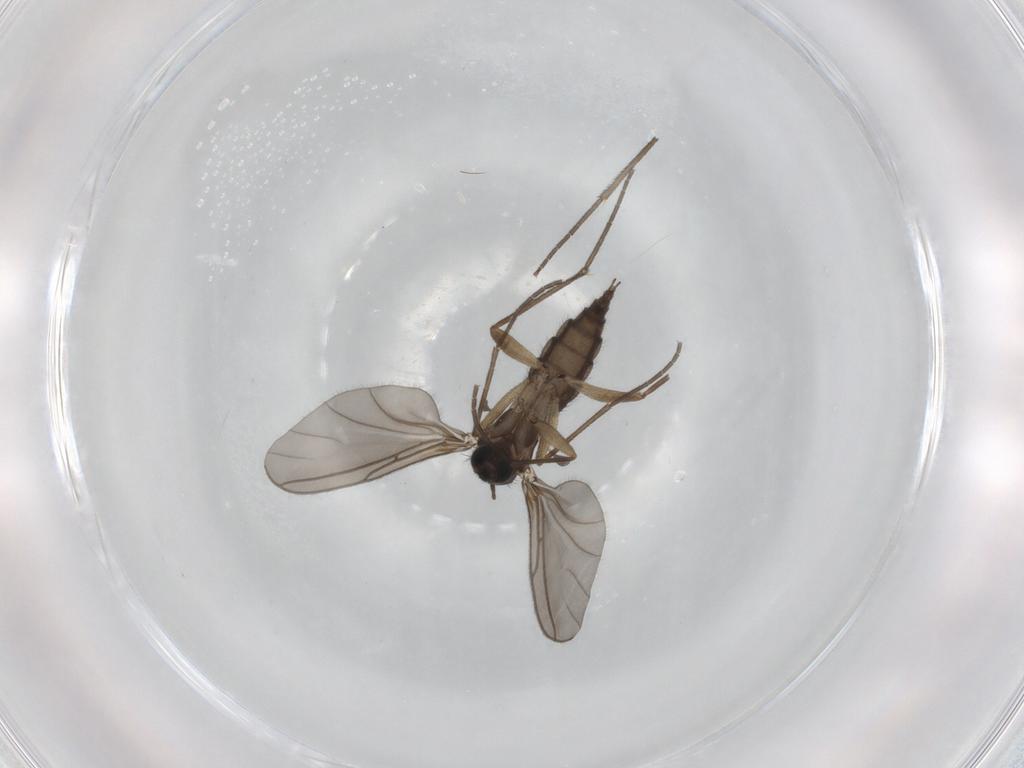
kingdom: Animalia
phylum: Arthropoda
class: Insecta
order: Diptera
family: Sciaridae
